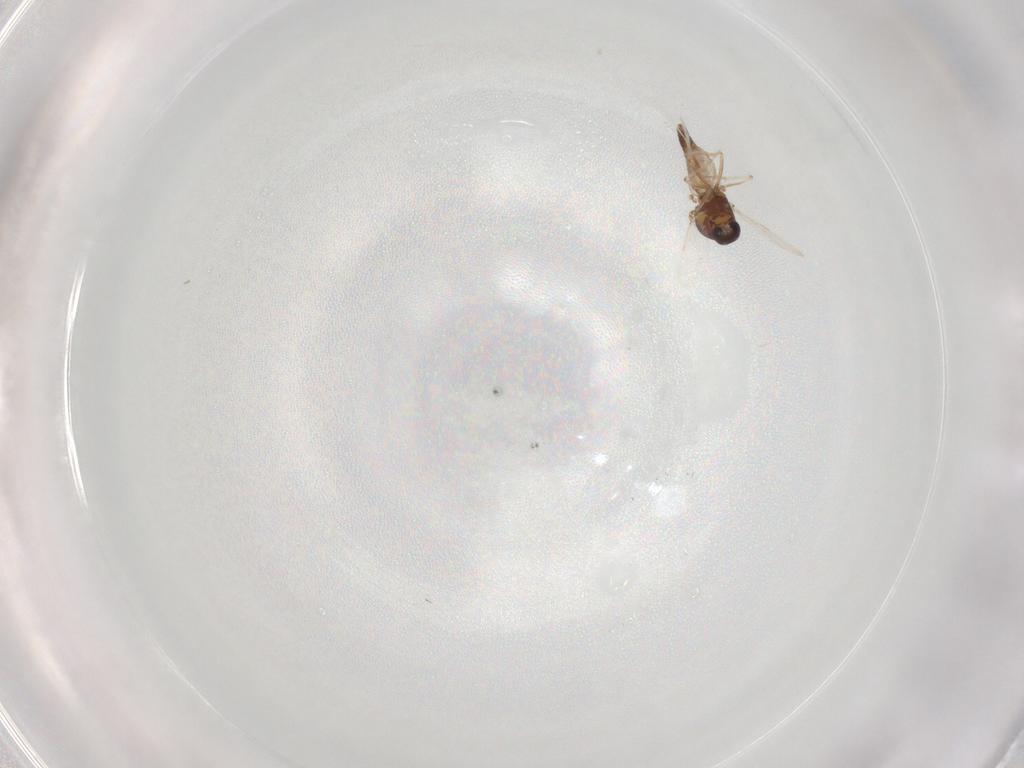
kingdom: Animalia
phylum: Arthropoda
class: Insecta
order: Diptera
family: Ceratopogonidae
